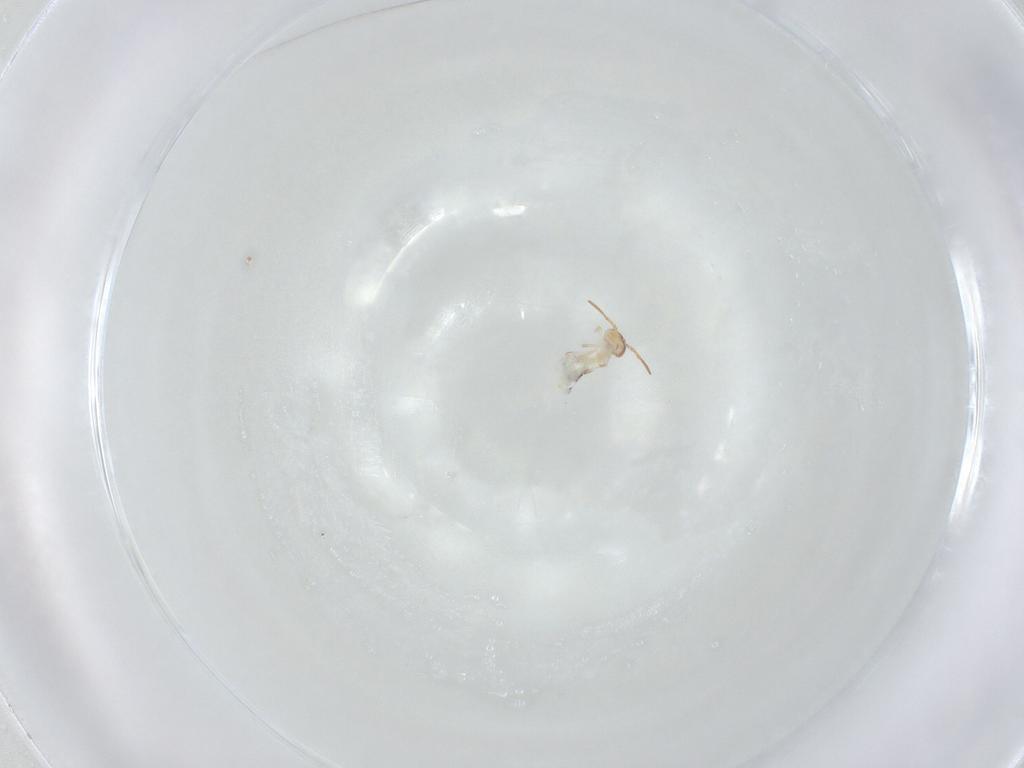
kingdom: Animalia
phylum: Arthropoda
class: Collembola
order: Symphypleona
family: Bourletiellidae
